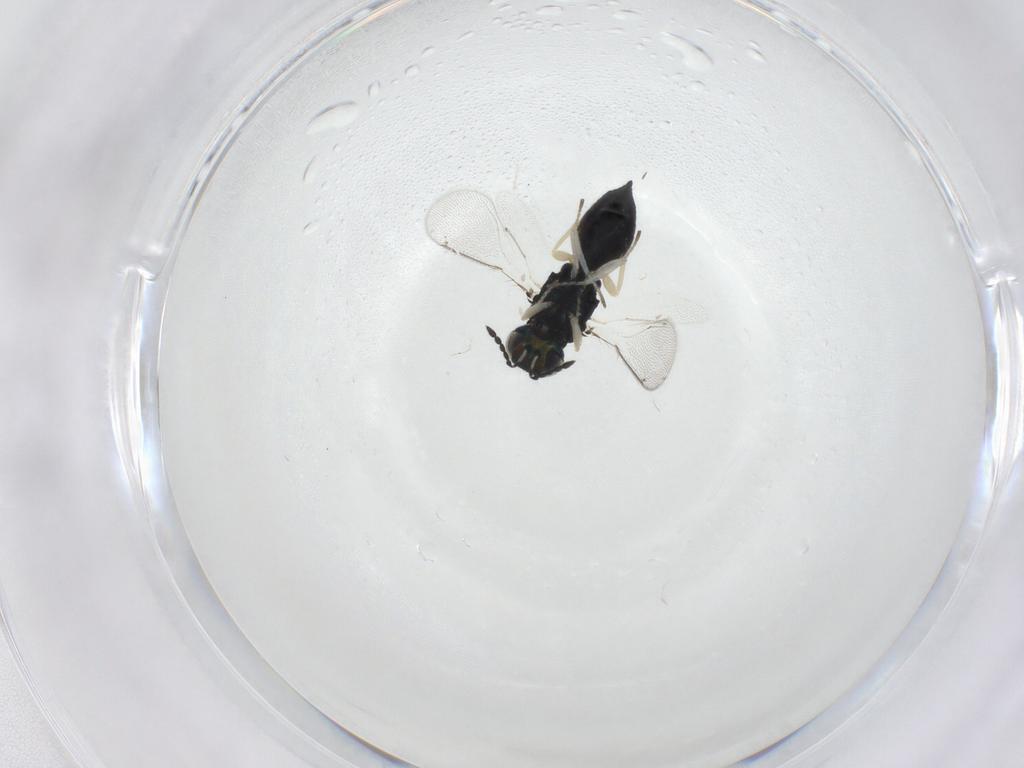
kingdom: Animalia
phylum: Arthropoda
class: Insecta
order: Hymenoptera
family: Eulophidae
